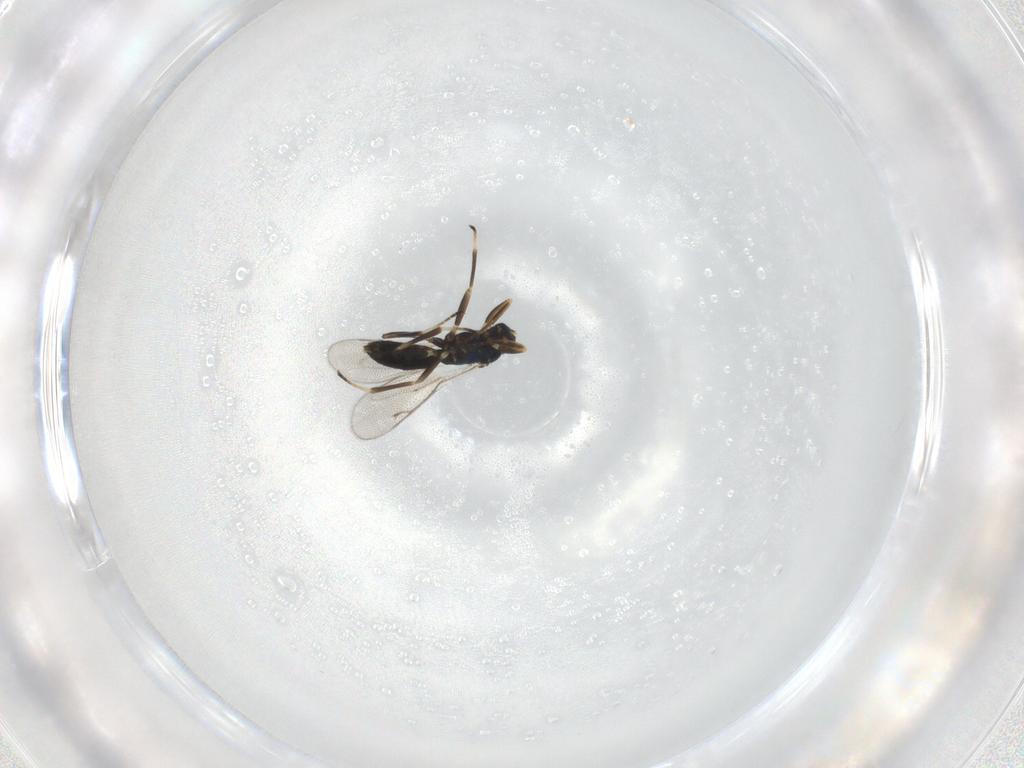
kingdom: Animalia
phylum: Arthropoda
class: Insecta
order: Hymenoptera
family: Eupelmidae
